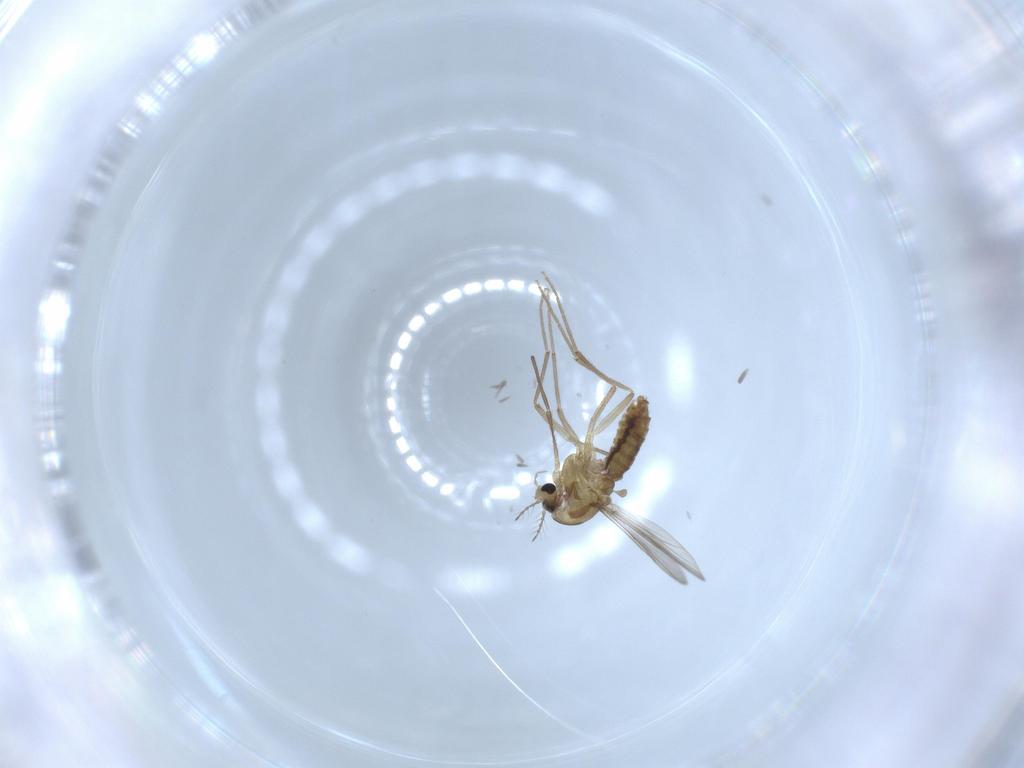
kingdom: Animalia
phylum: Arthropoda
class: Insecta
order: Diptera
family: Chironomidae
